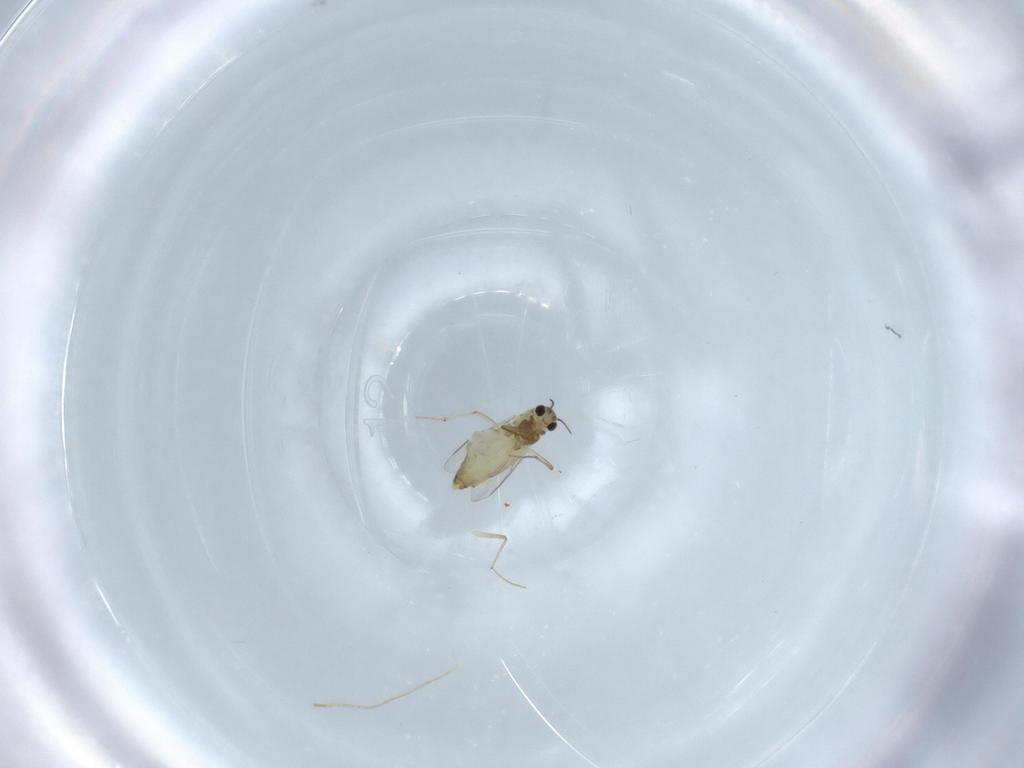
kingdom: Animalia
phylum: Arthropoda
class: Insecta
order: Diptera
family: Chironomidae
